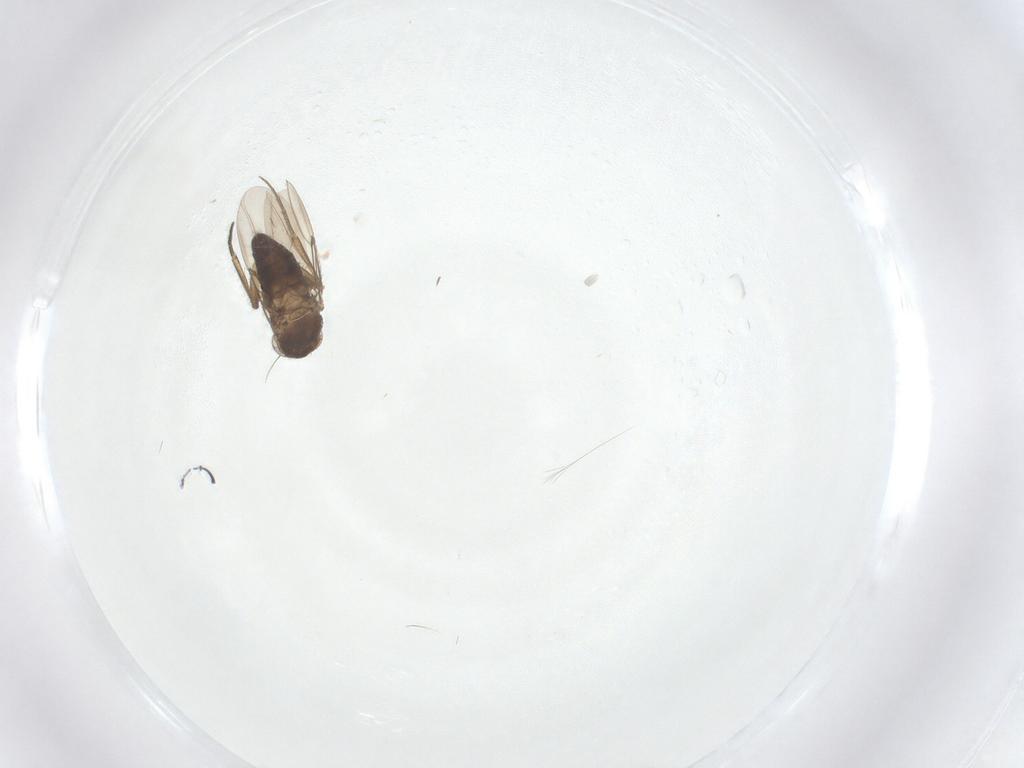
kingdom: Animalia
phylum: Arthropoda
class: Insecta
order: Diptera
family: Phoridae
